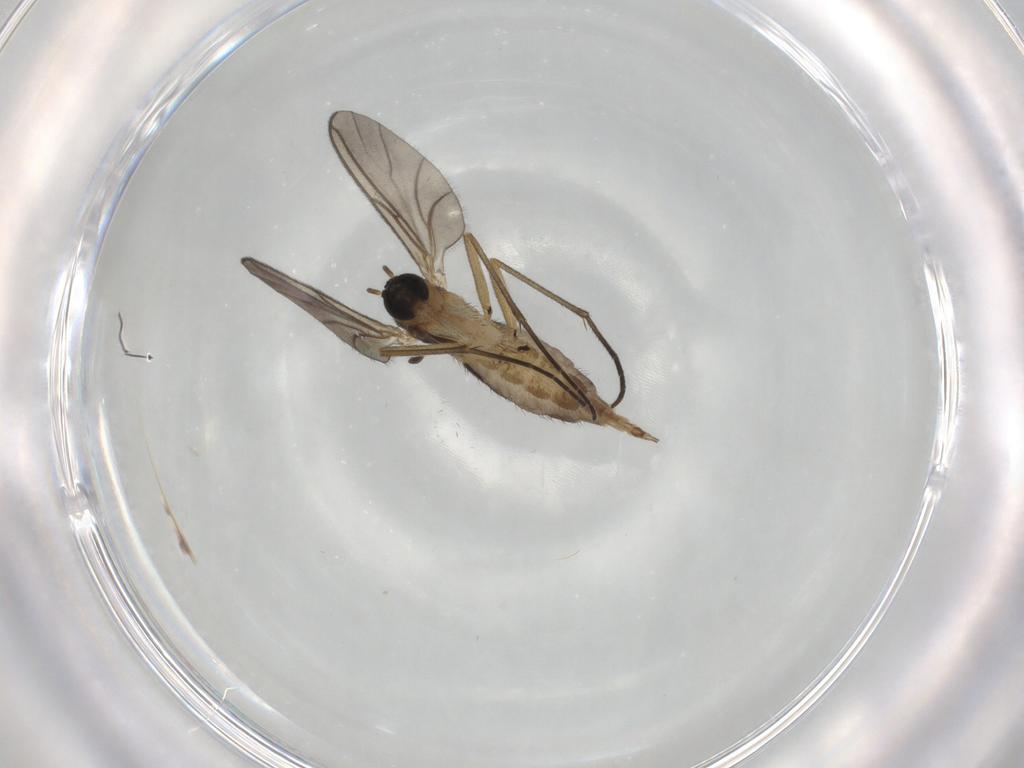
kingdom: Animalia
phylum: Arthropoda
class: Insecta
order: Diptera
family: Sciaridae
